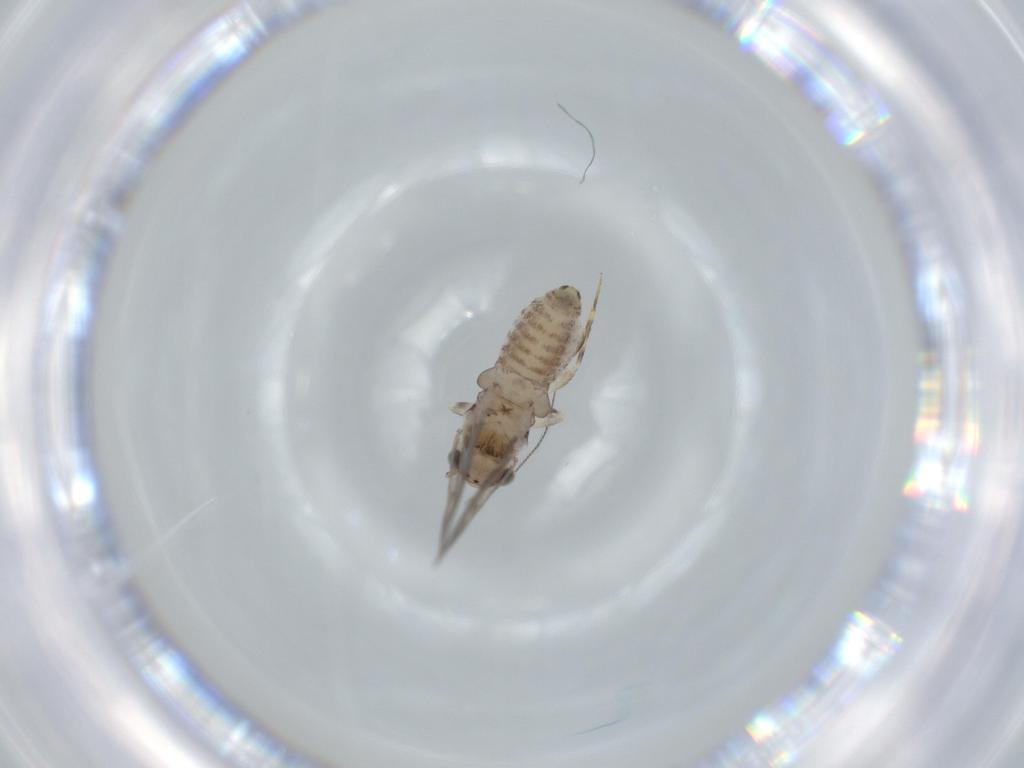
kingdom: Animalia
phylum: Arthropoda
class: Insecta
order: Psocodea
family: Lepidopsocidae
